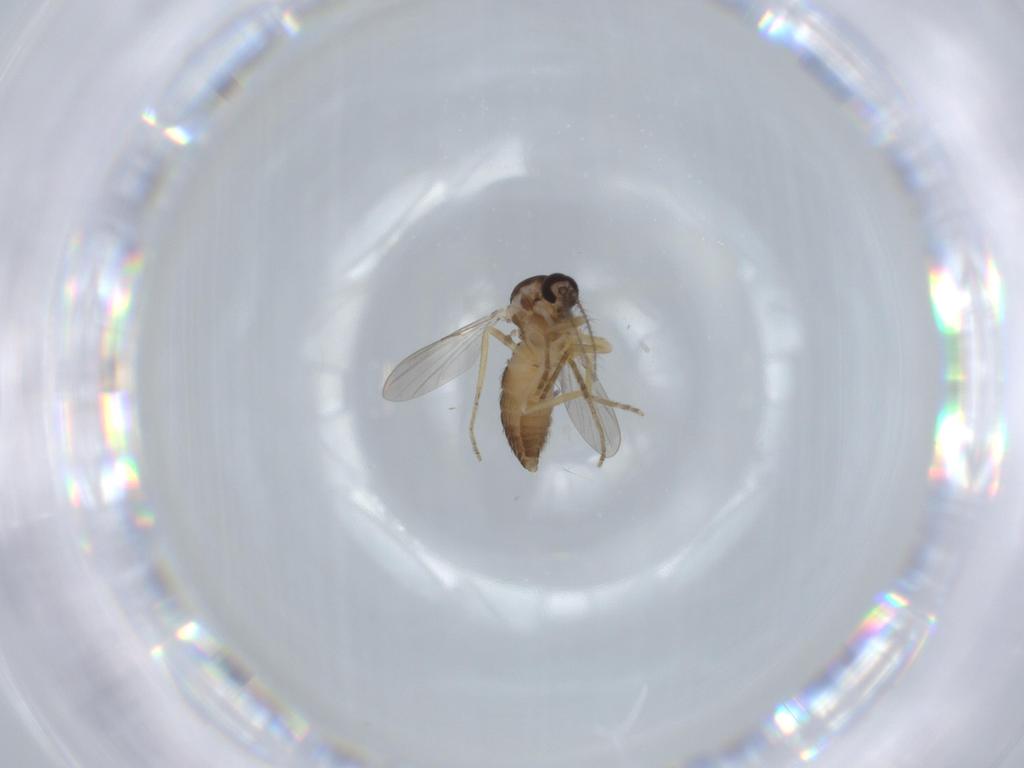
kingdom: Animalia
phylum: Arthropoda
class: Insecta
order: Diptera
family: Ceratopogonidae
